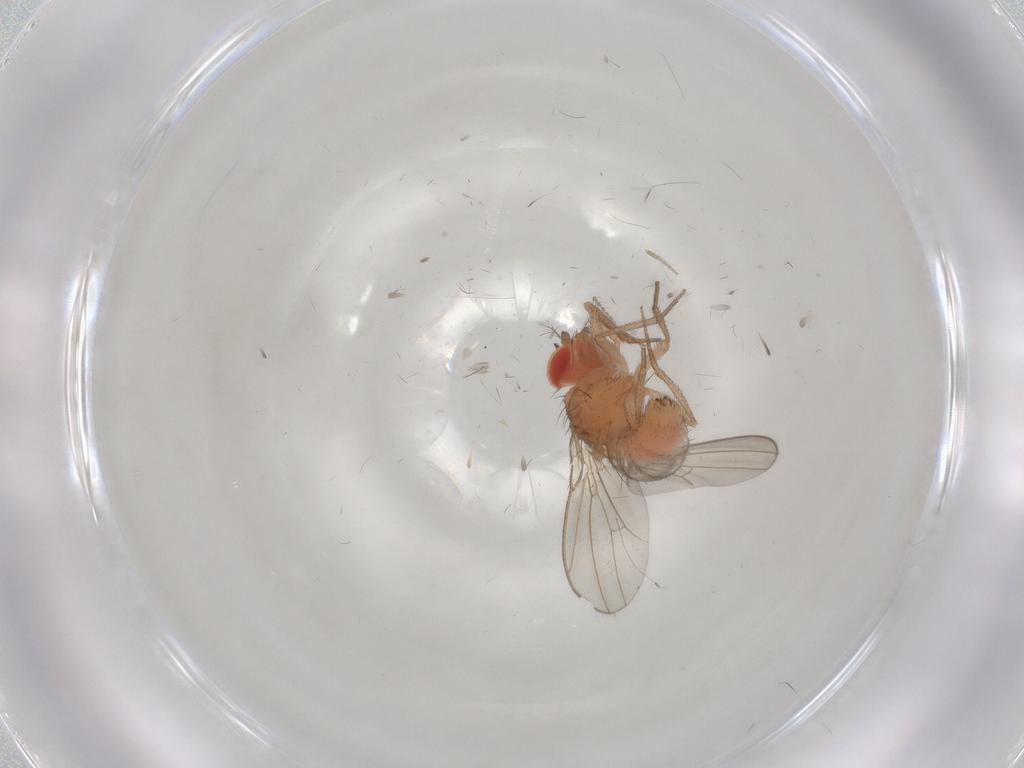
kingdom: Animalia
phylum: Arthropoda
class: Insecta
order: Diptera
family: Drosophilidae
